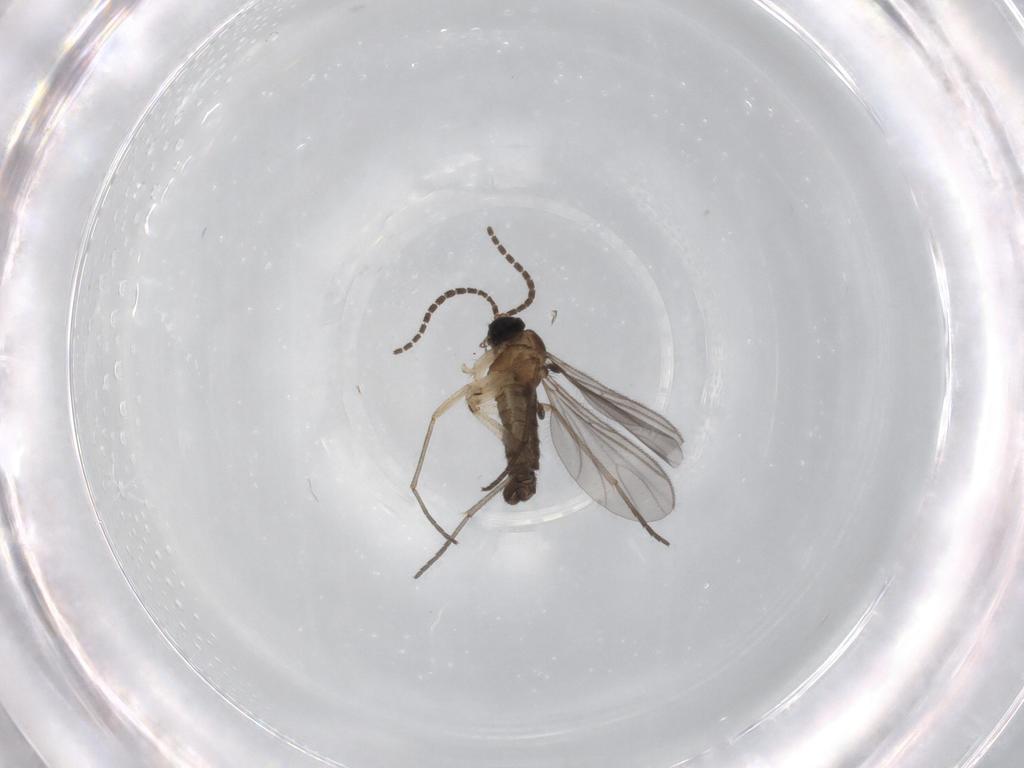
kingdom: Animalia
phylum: Arthropoda
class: Insecta
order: Diptera
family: Sciaridae
